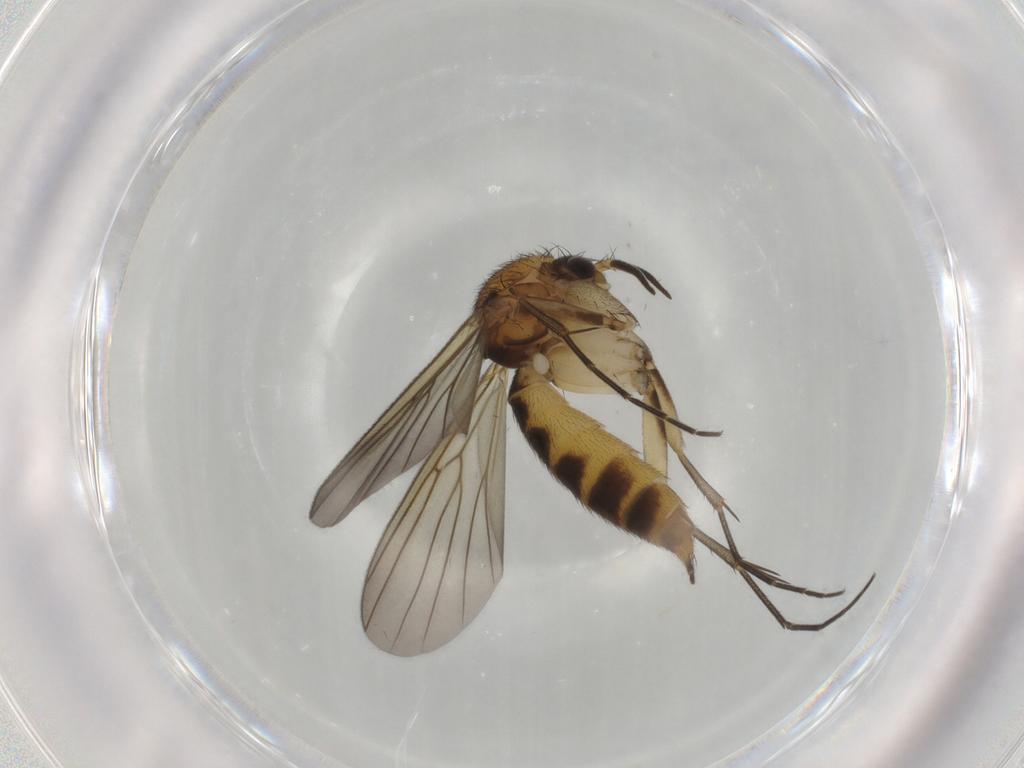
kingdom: Animalia
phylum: Arthropoda
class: Insecta
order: Diptera
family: Mycetophilidae
